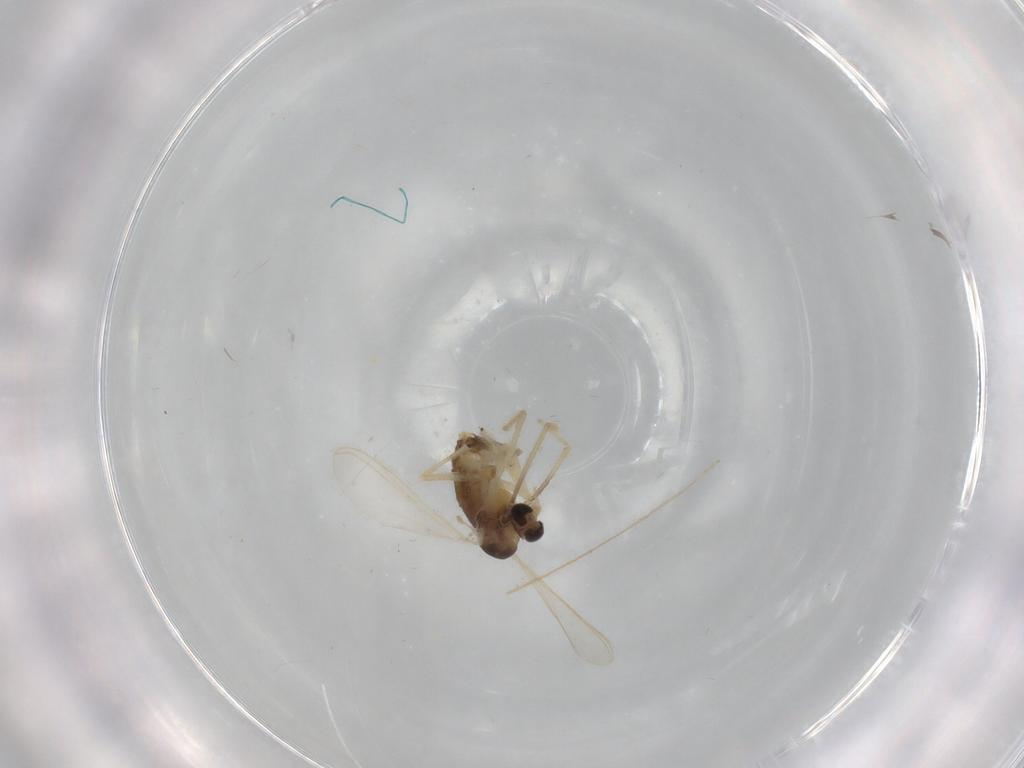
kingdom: Animalia
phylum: Arthropoda
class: Insecta
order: Diptera
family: Chironomidae
